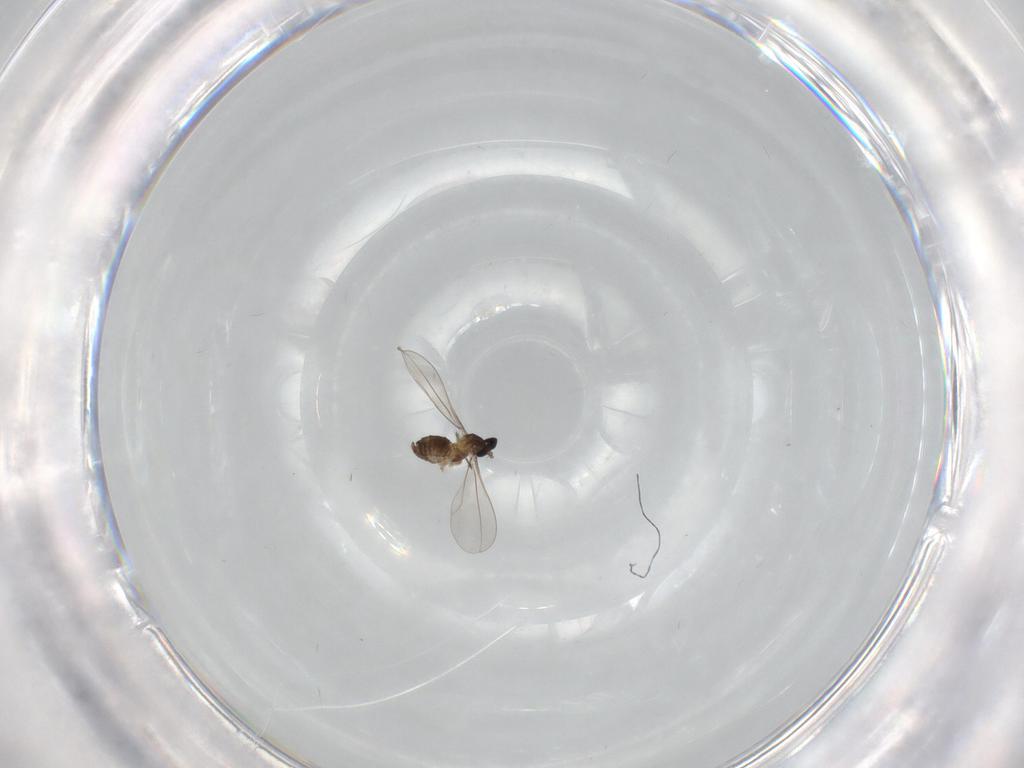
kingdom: Animalia
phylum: Arthropoda
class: Insecta
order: Diptera
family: Cecidomyiidae
